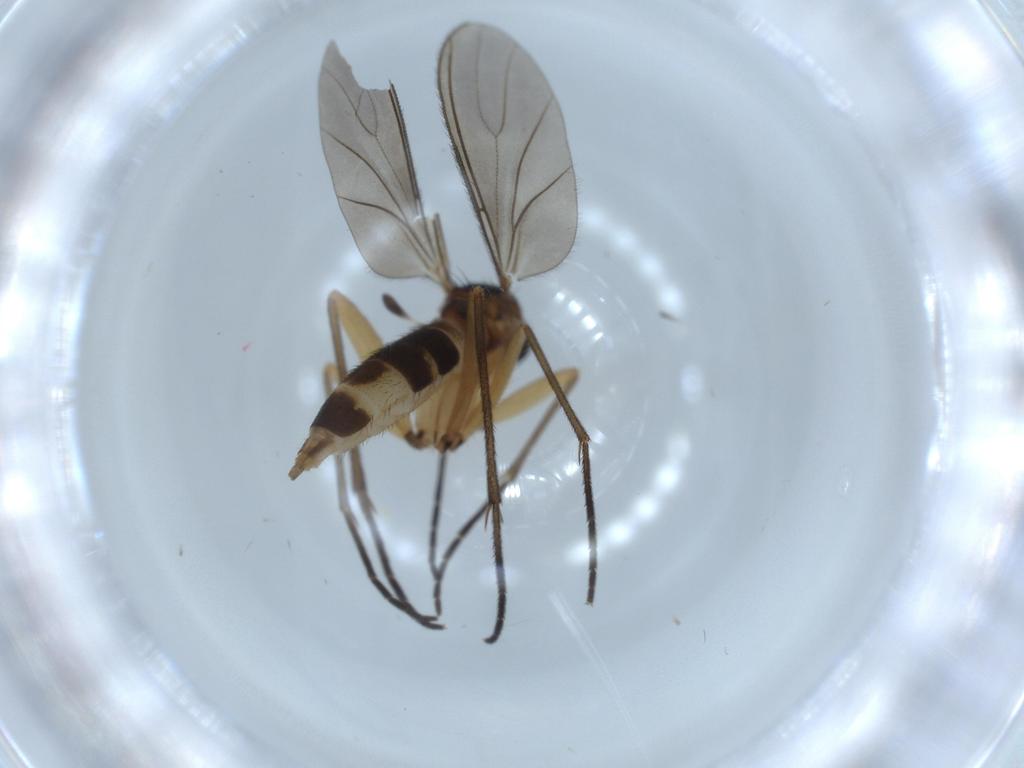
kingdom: Animalia
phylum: Arthropoda
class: Insecta
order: Diptera
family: Sciaridae
